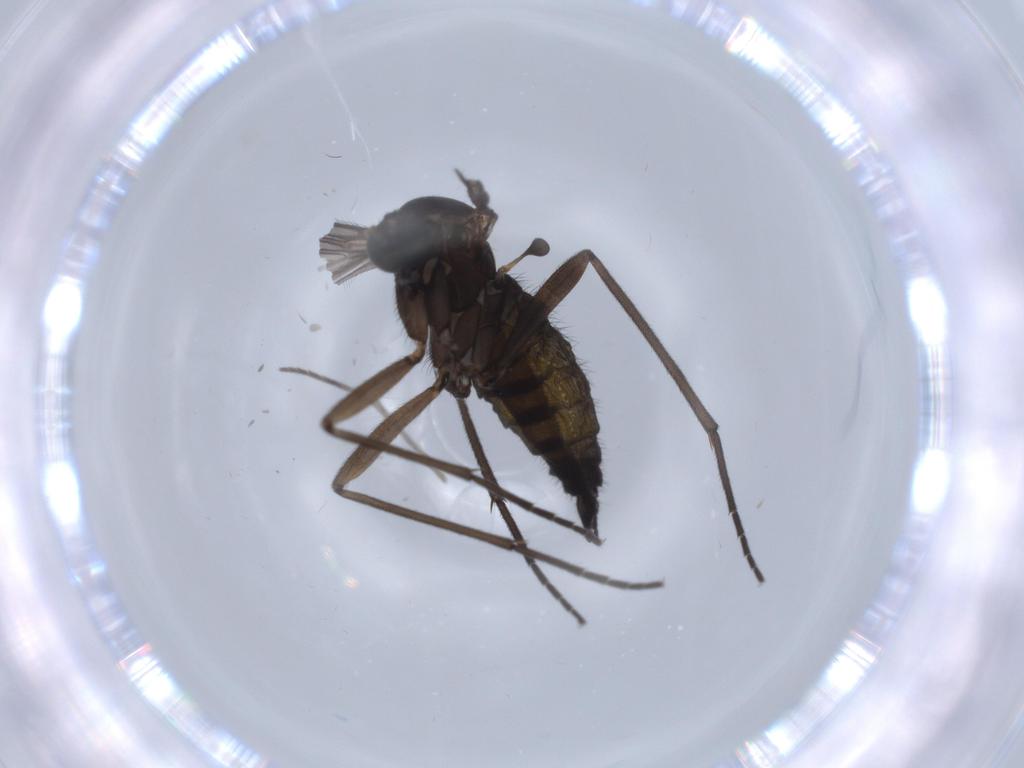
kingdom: Animalia
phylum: Arthropoda
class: Insecta
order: Diptera
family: Sciaridae
